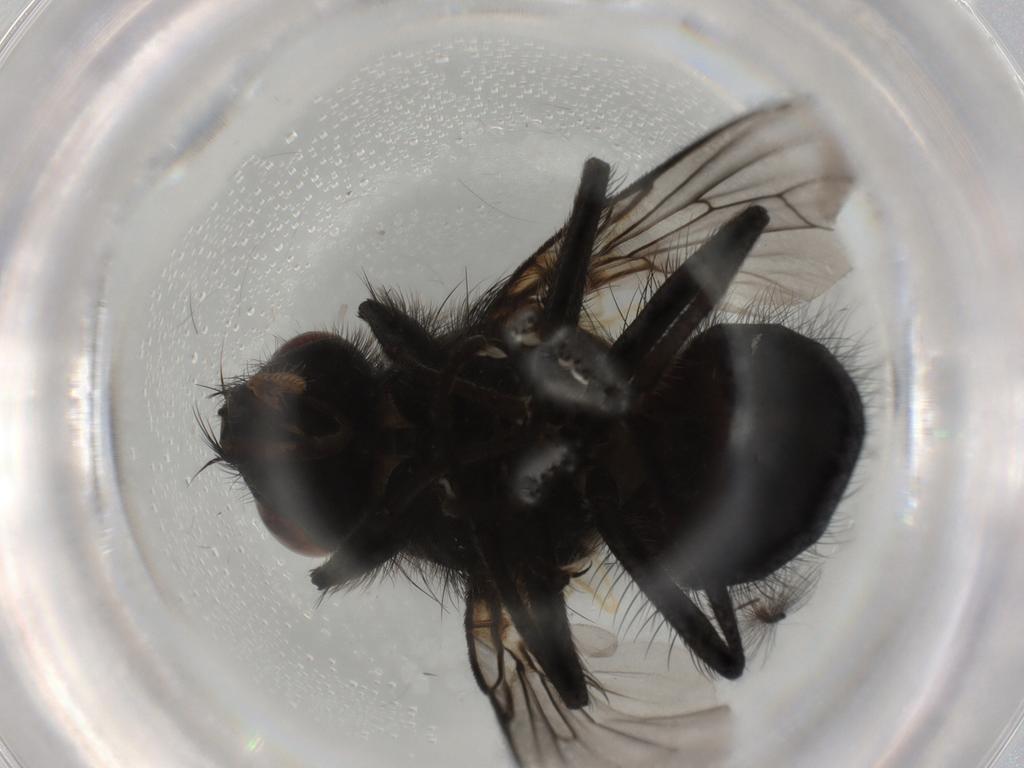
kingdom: Animalia
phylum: Arthropoda
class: Insecta
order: Diptera
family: Chironomidae
